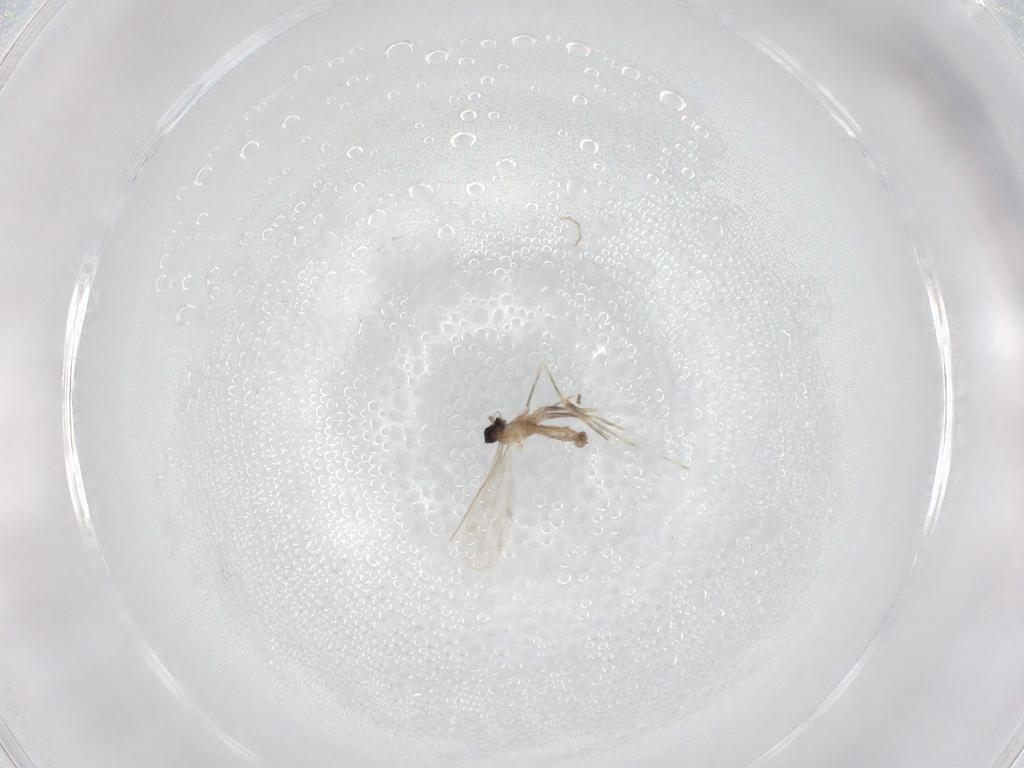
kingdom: Animalia
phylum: Arthropoda
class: Insecta
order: Diptera
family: Cecidomyiidae
